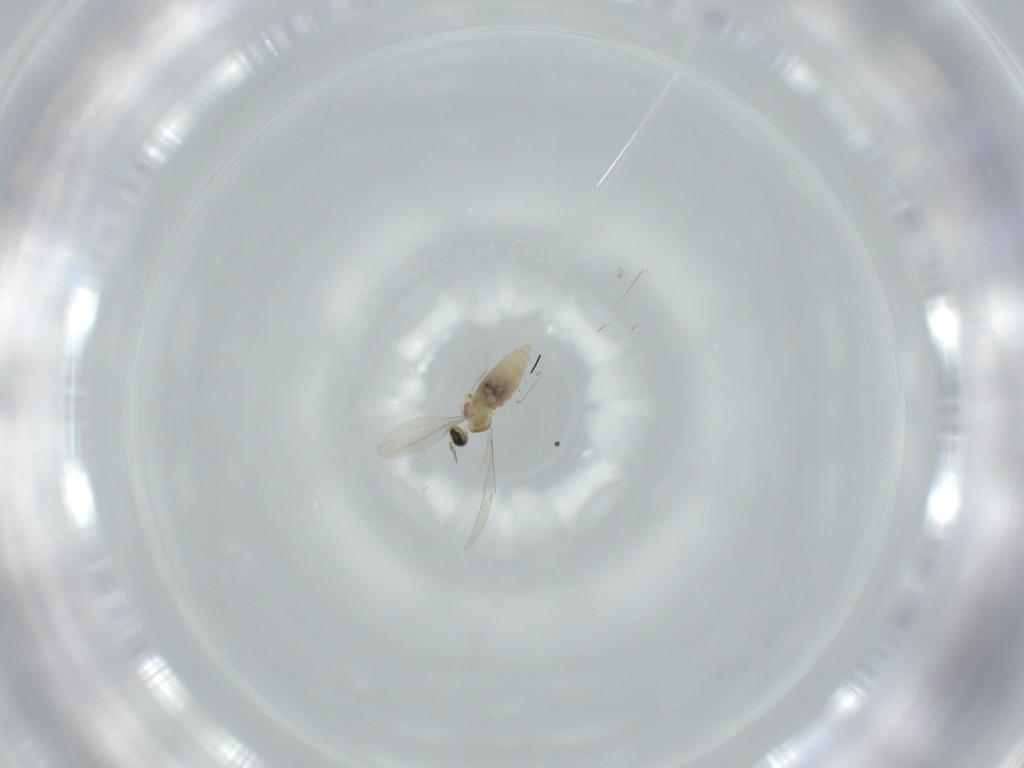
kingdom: Animalia
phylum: Arthropoda
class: Insecta
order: Diptera
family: Cecidomyiidae
